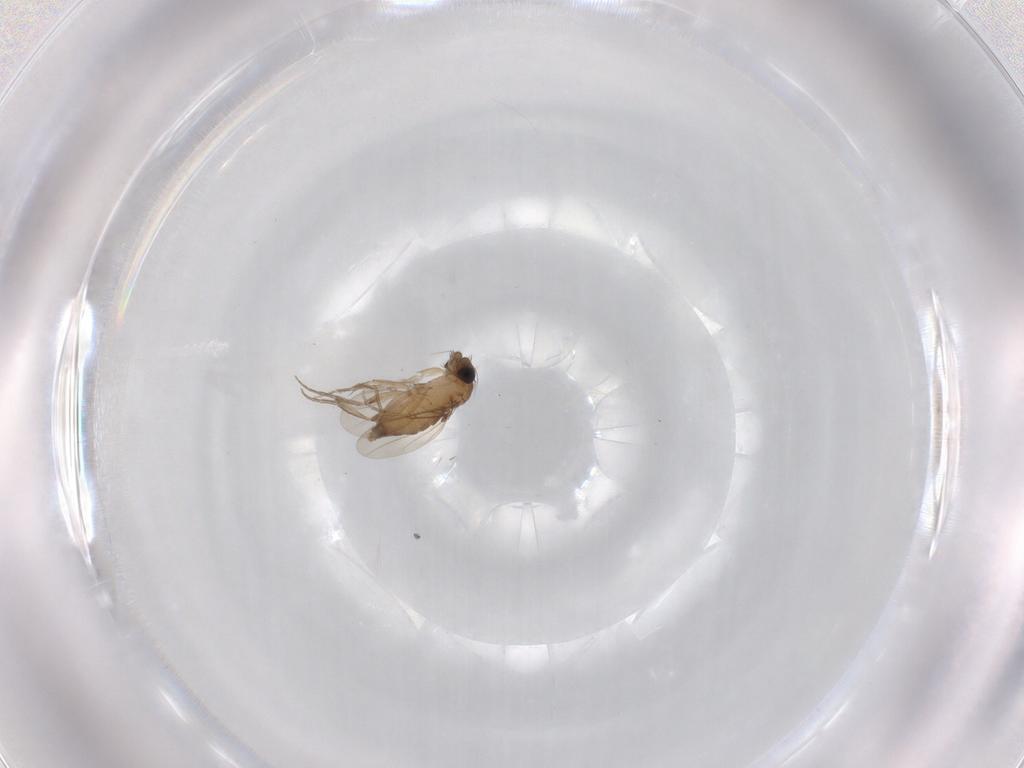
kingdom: Animalia
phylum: Arthropoda
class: Insecta
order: Diptera
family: Phoridae
